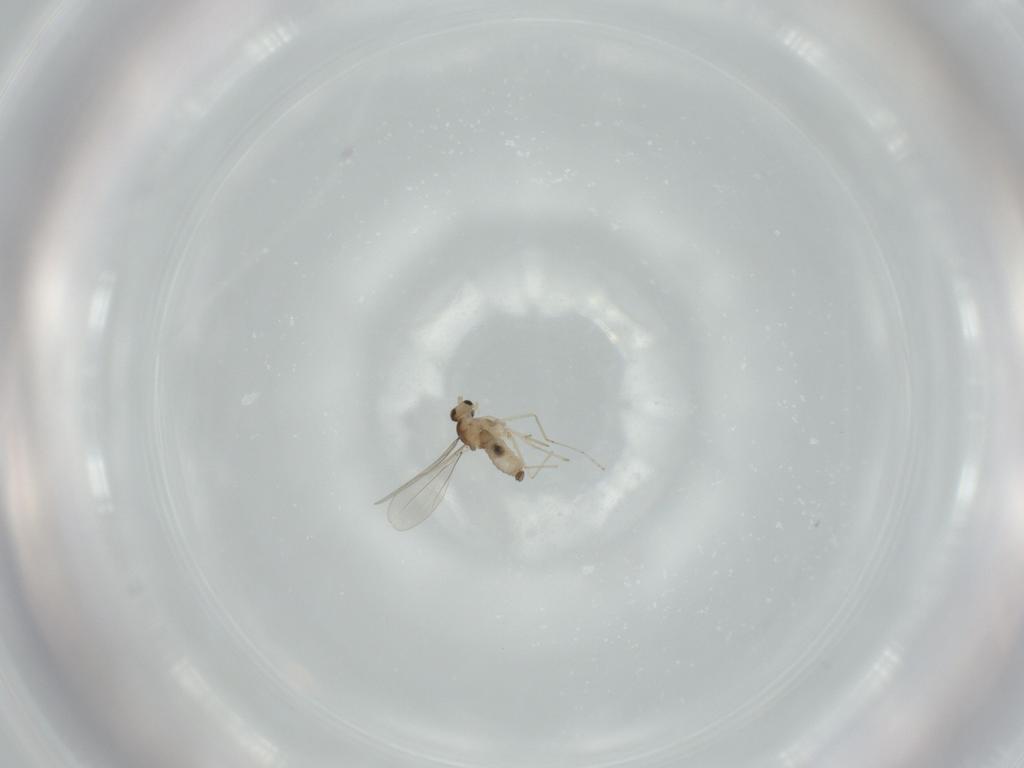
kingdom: Animalia
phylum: Arthropoda
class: Insecta
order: Diptera
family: Cecidomyiidae
